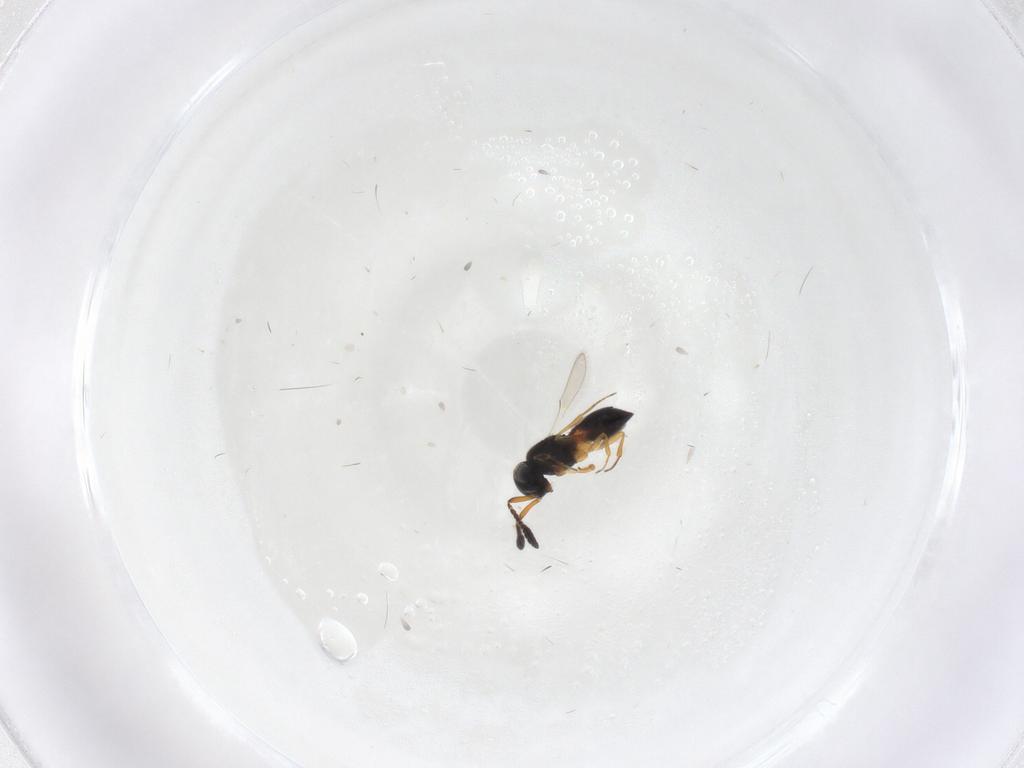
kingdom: Animalia
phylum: Arthropoda
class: Insecta
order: Hymenoptera
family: Scelionidae
